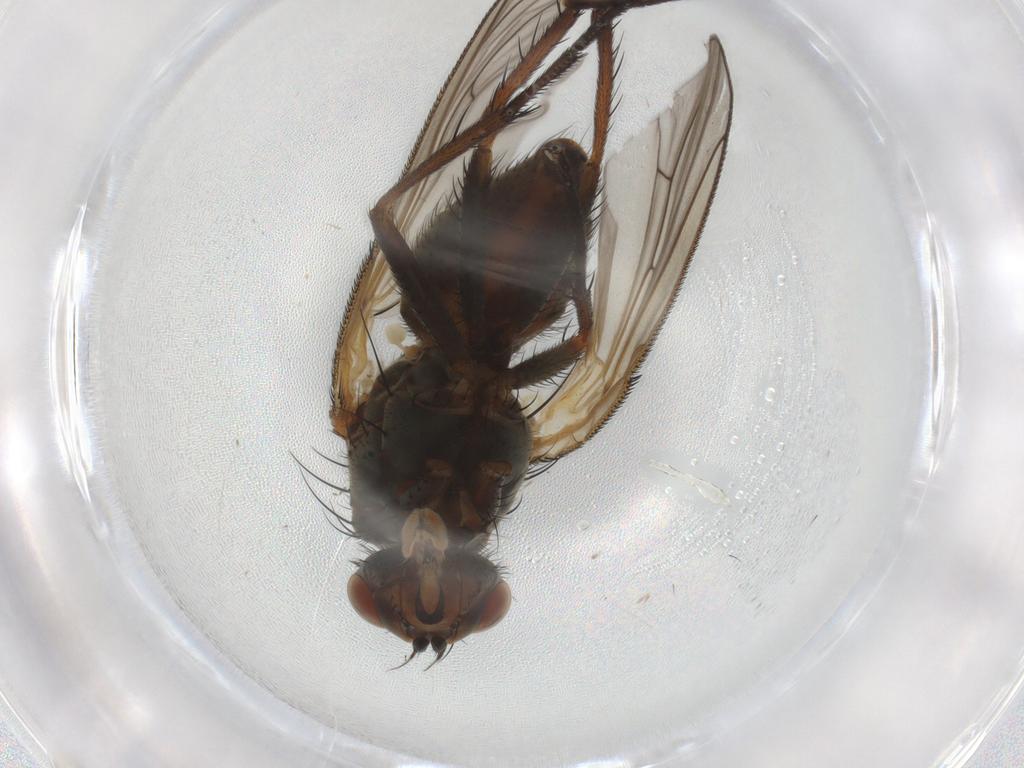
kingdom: Animalia
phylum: Arthropoda
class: Insecta
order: Diptera
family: Anthomyiidae
